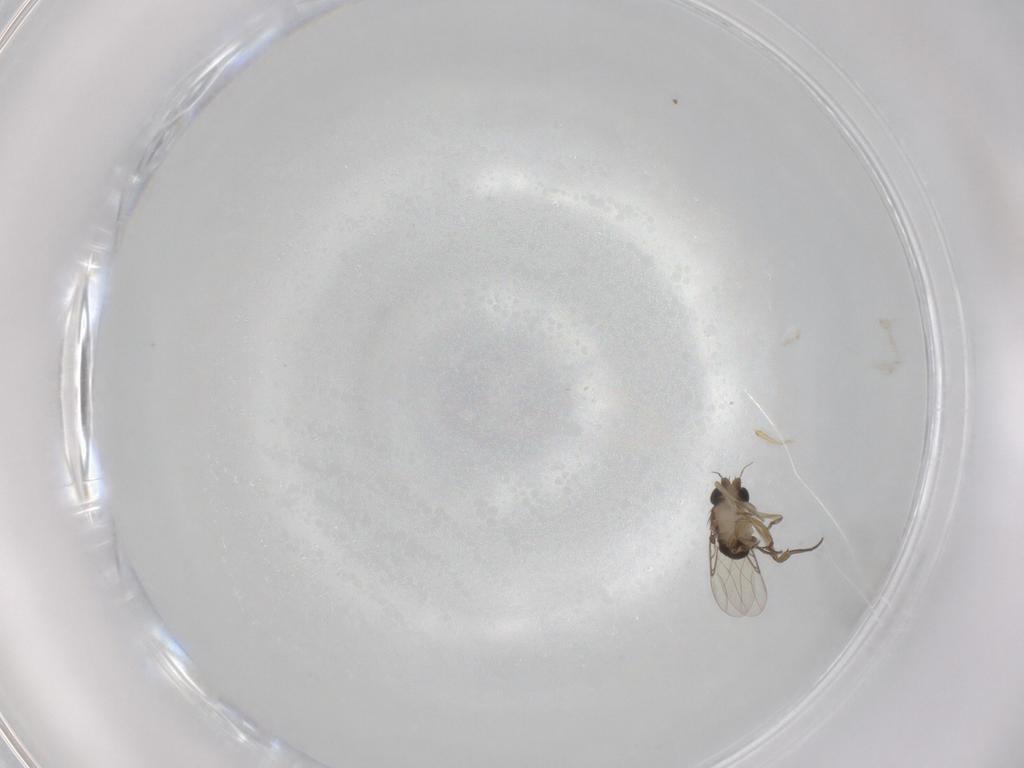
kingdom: Animalia
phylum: Arthropoda
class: Insecta
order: Diptera
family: Phoridae
